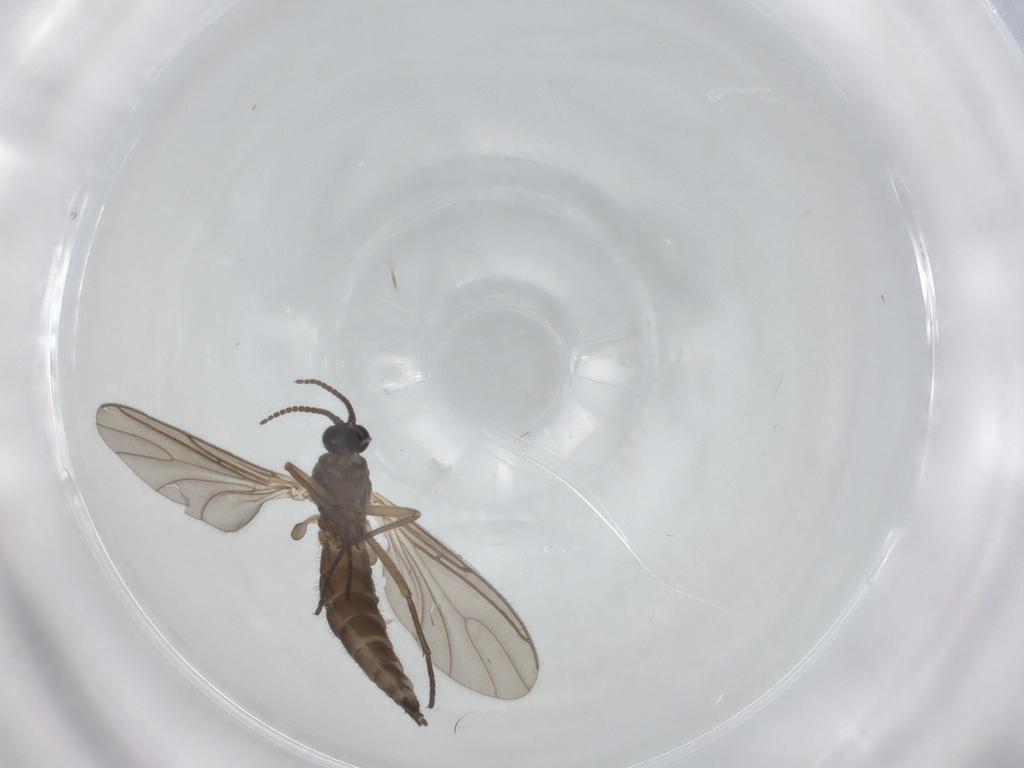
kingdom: Animalia
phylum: Arthropoda
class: Insecta
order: Diptera
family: Sciaridae
